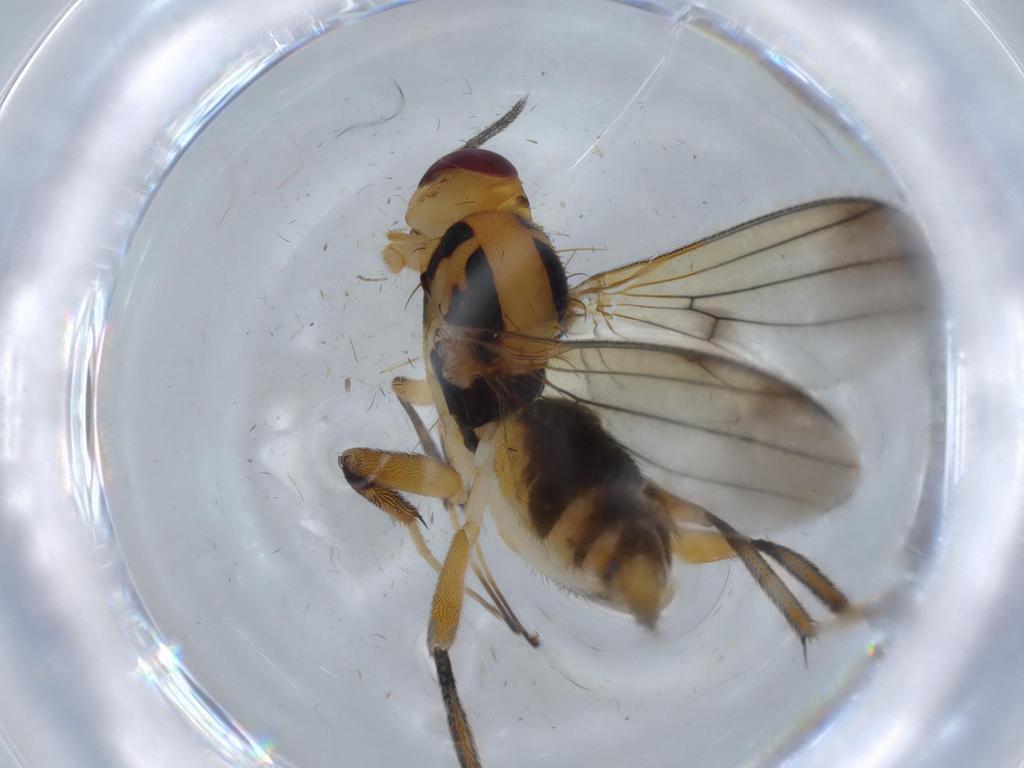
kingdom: Animalia
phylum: Arthropoda
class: Insecta
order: Diptera
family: Clusiidae
